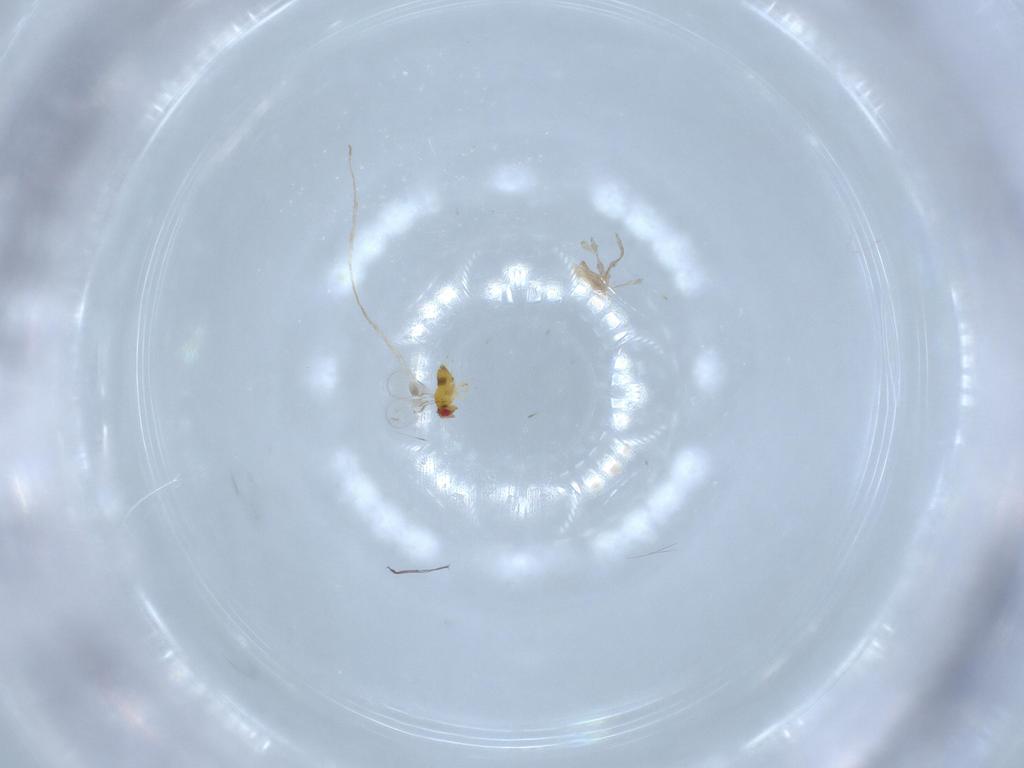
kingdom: Animalia
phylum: Arthropoda
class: Insecta
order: Hymenoptera
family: Trichogrammatidae
